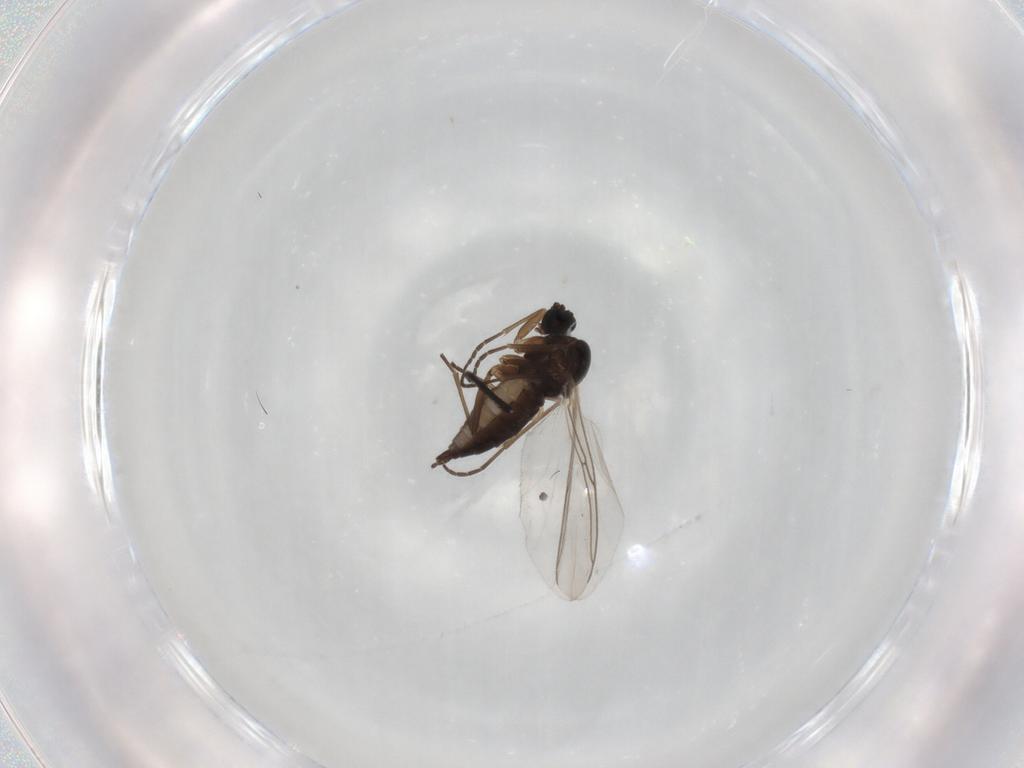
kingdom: Animalia
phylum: Arthropoda
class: Insecta
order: Diptera
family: Sciaridae
